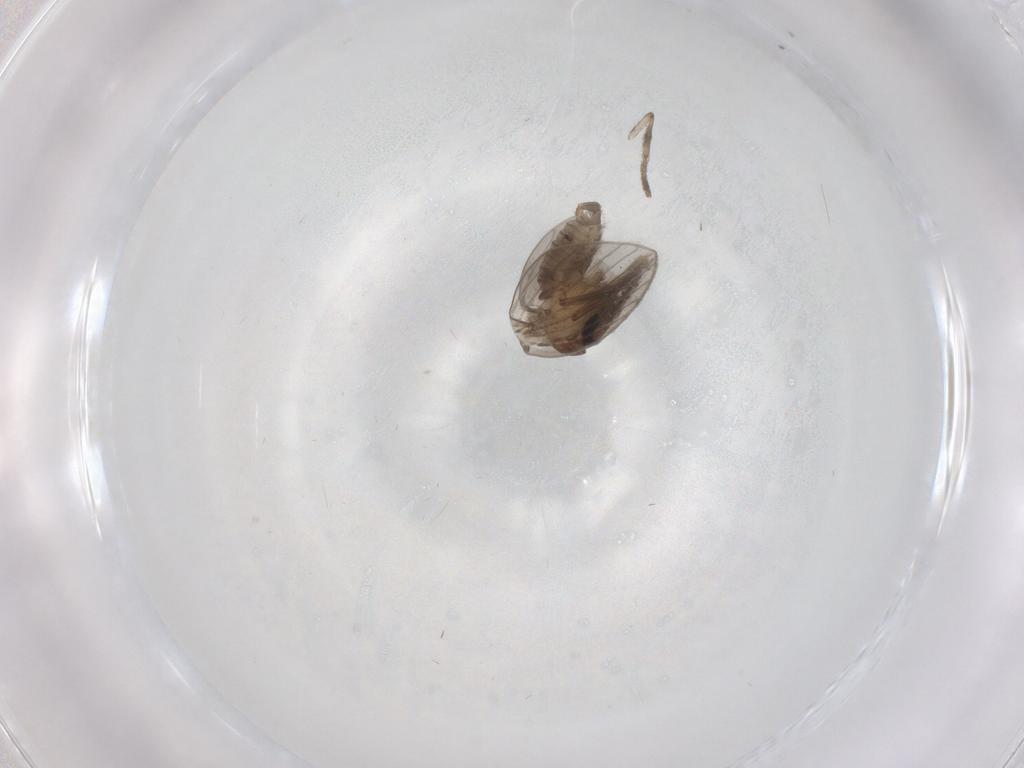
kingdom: Animalia
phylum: Arthropoda
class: Insecta
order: Diptera
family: Psychodidae
